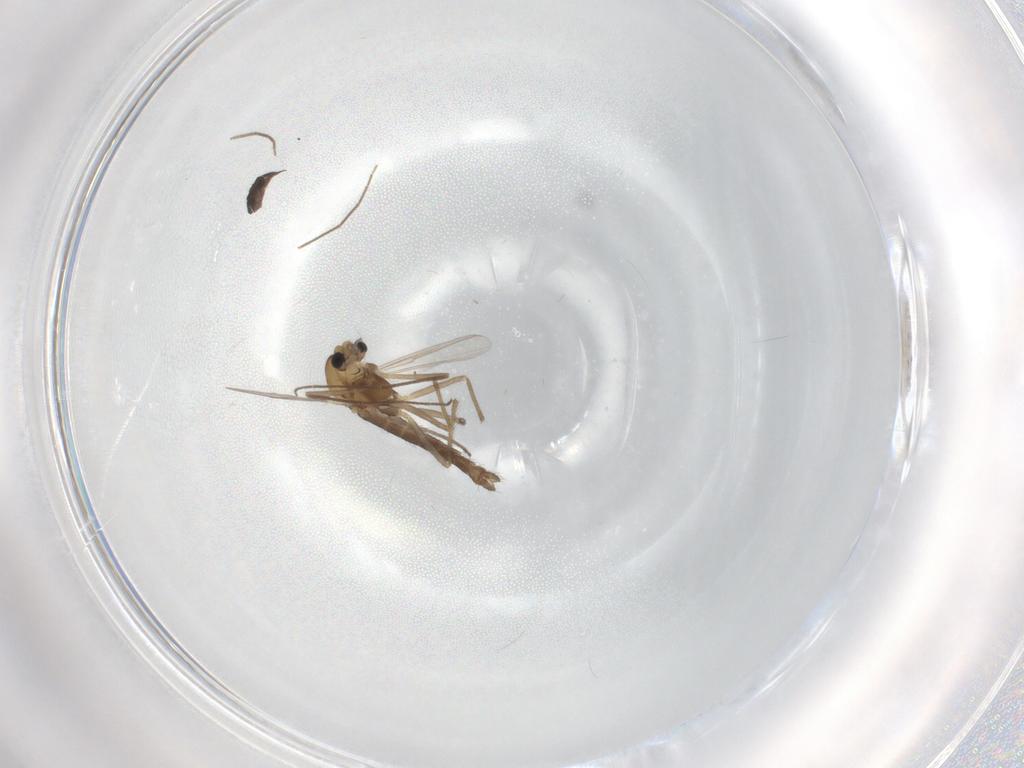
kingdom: Animalia
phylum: Arthropoda
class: Insecta
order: Diptera
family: Chironomidae
